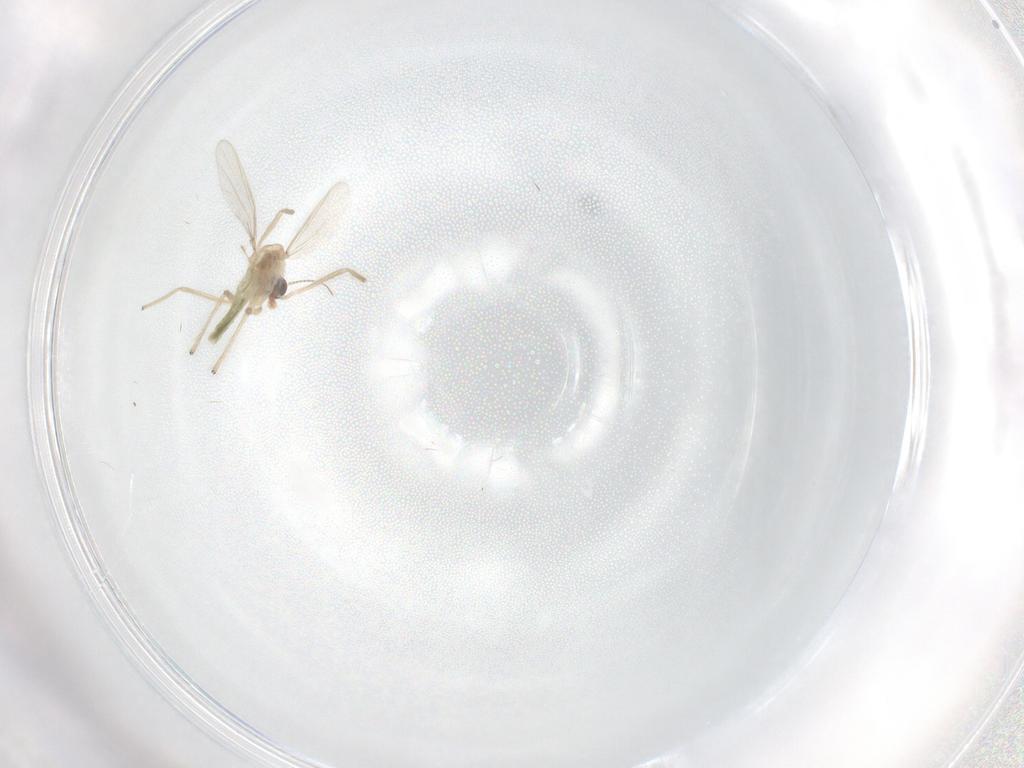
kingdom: Animalia
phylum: Arthropoda
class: Insecta
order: Diptera
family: Chironomidae
